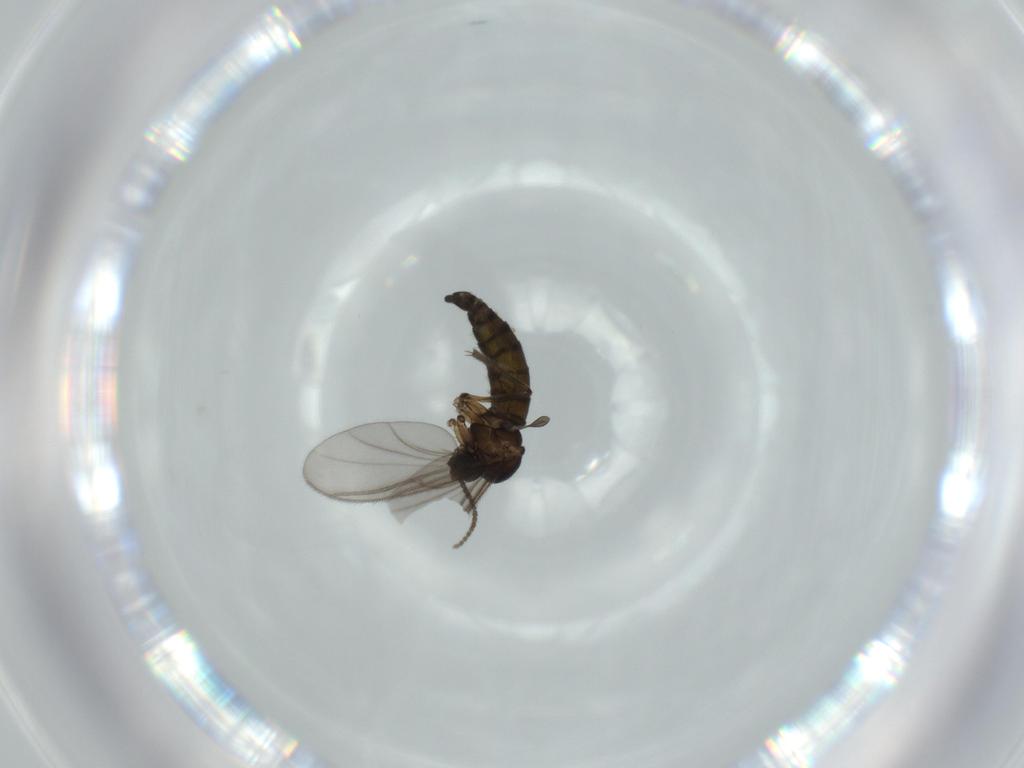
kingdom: Animalia
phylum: Arthropoda
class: Insecta
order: Diptera
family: Sciaridae
